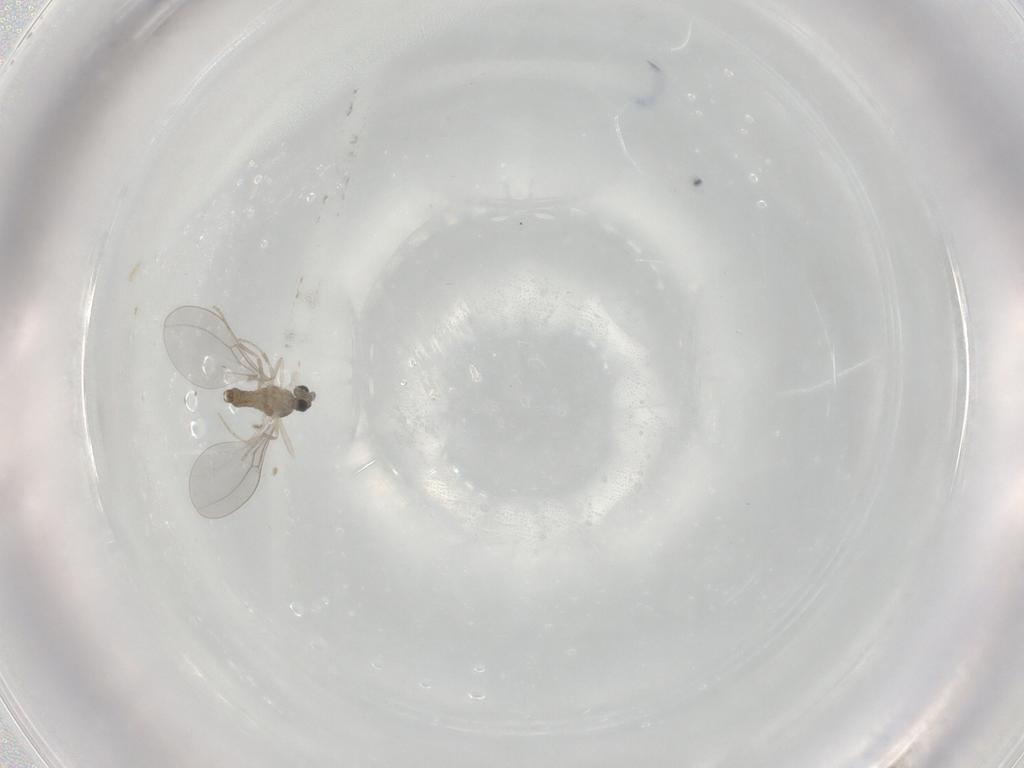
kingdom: Animalia
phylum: Arthropoda
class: Insecta
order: Diptera
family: Cecidomyiidae
